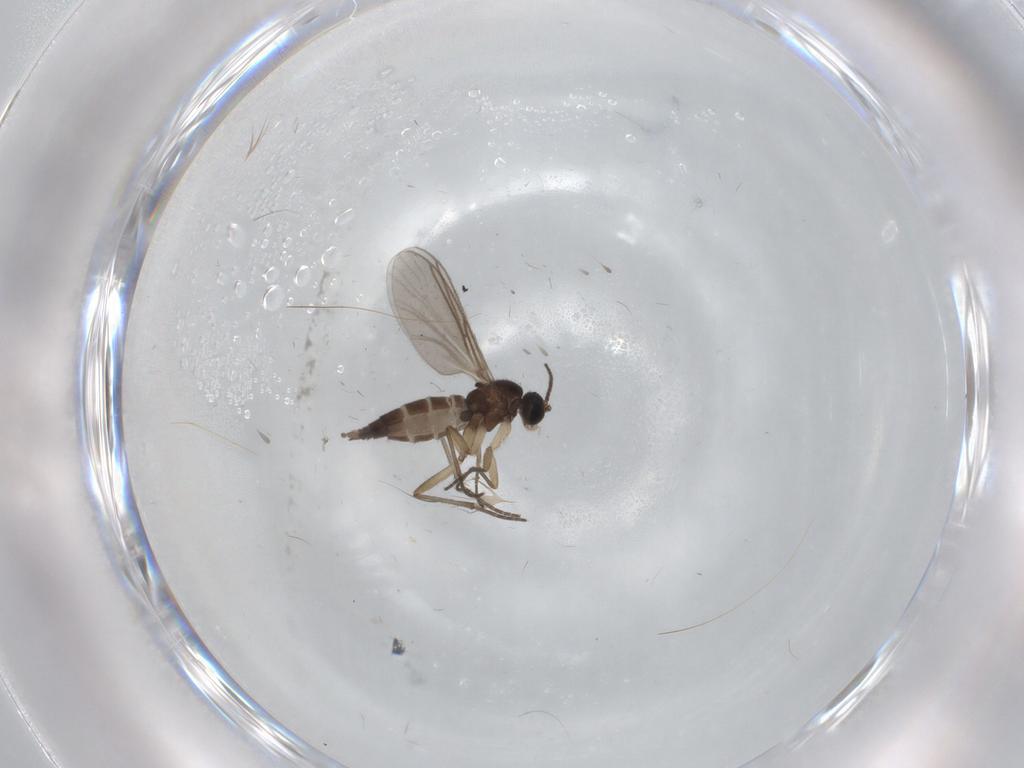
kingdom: Animalia
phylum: Arthropoda
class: Insecta
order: Diptera
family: Sciaridae
